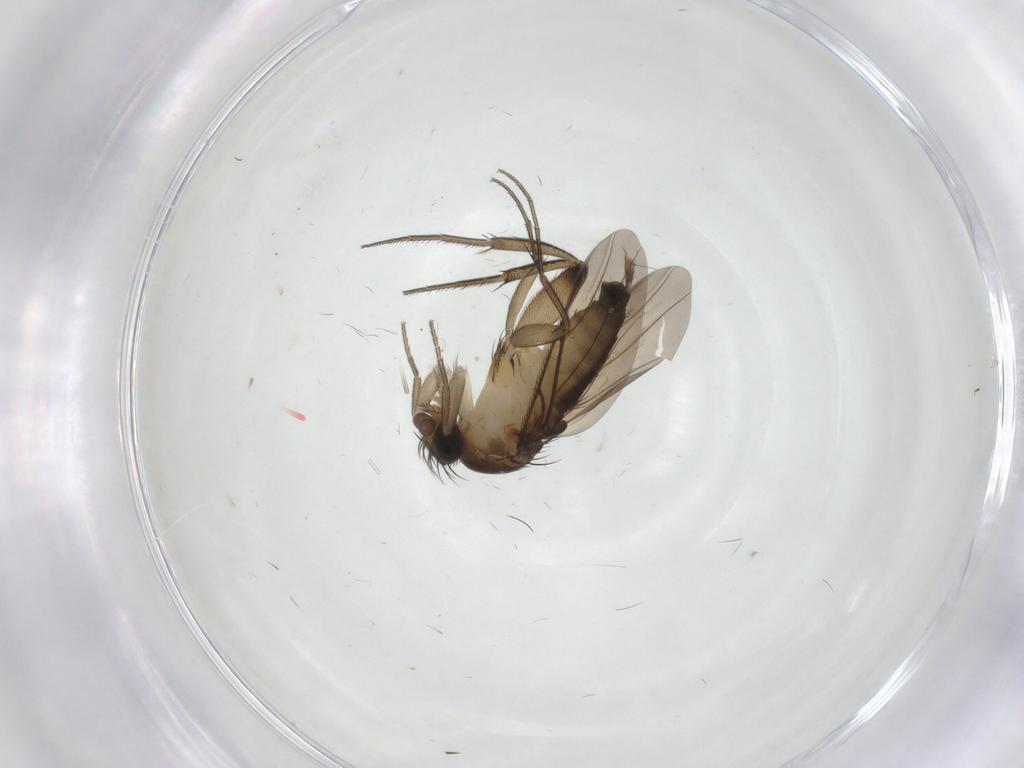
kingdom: Animalia
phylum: Arthropoda
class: Insecta
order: Diptera
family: Phoridae
